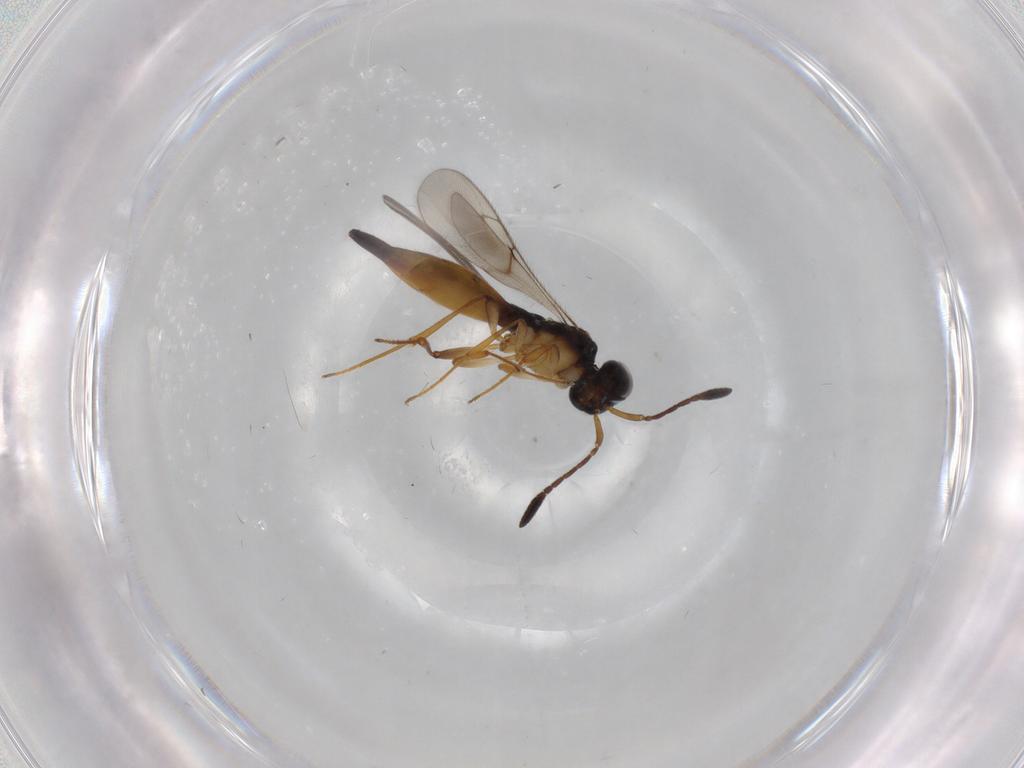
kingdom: Animalia
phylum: Arthropoda
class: Insecta
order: Hymenoptera
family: Scelionidae
